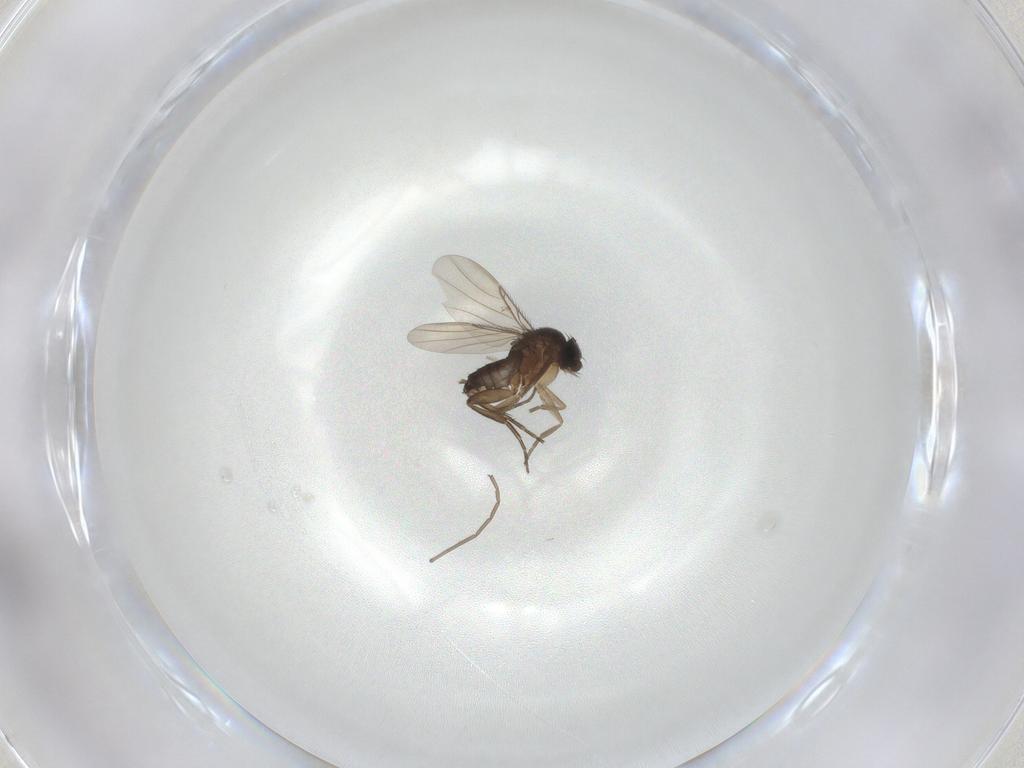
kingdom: Animalia
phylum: Arthropoda
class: Insecta
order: Diptera
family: Phoridae
